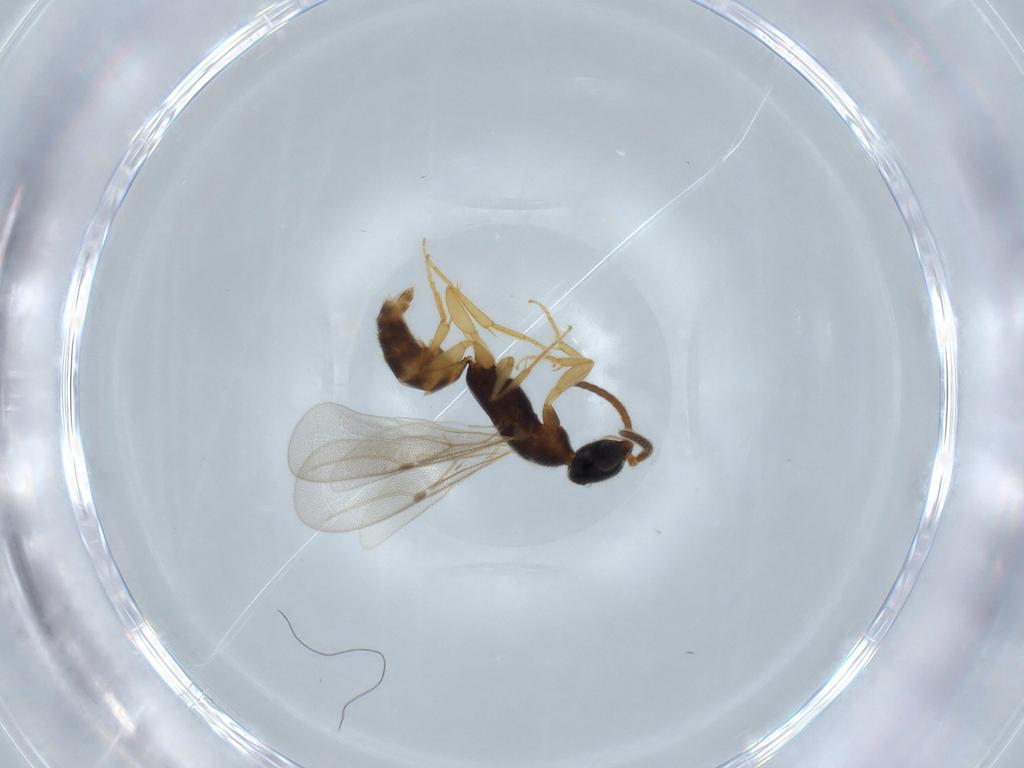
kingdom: Animalia
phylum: Arthropoda
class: Insecta
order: Hymenoptera
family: Bethylidae
